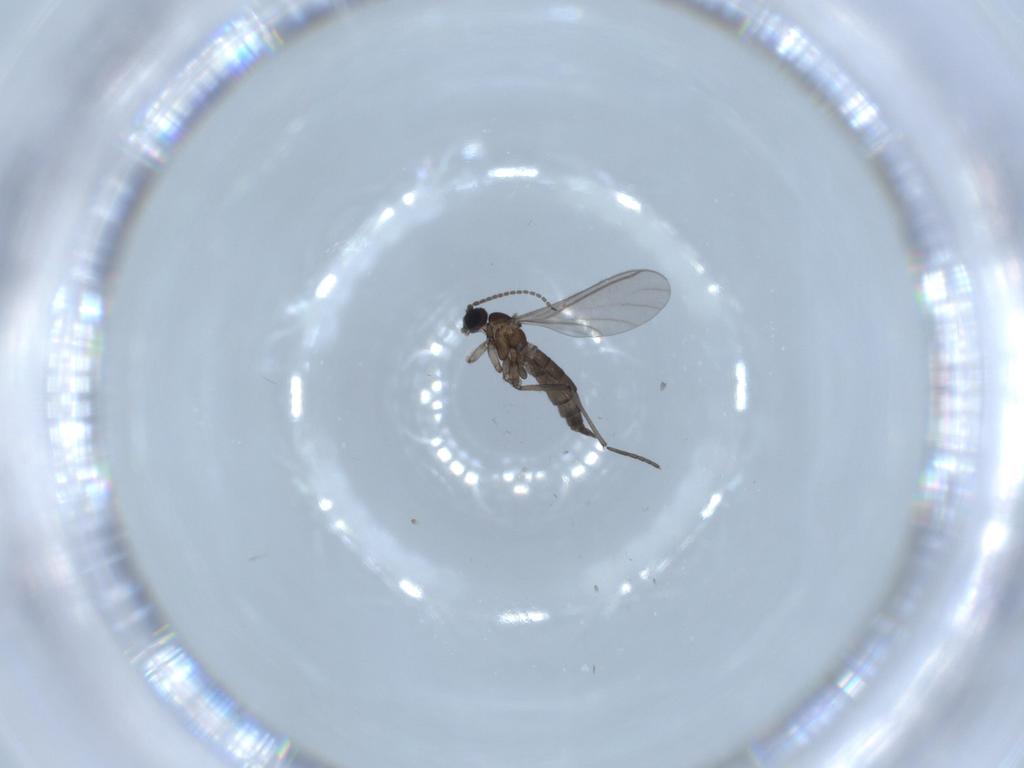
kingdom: Animalia
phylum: Arthropoda
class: Insecta
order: Diptera
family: Sciaridae
